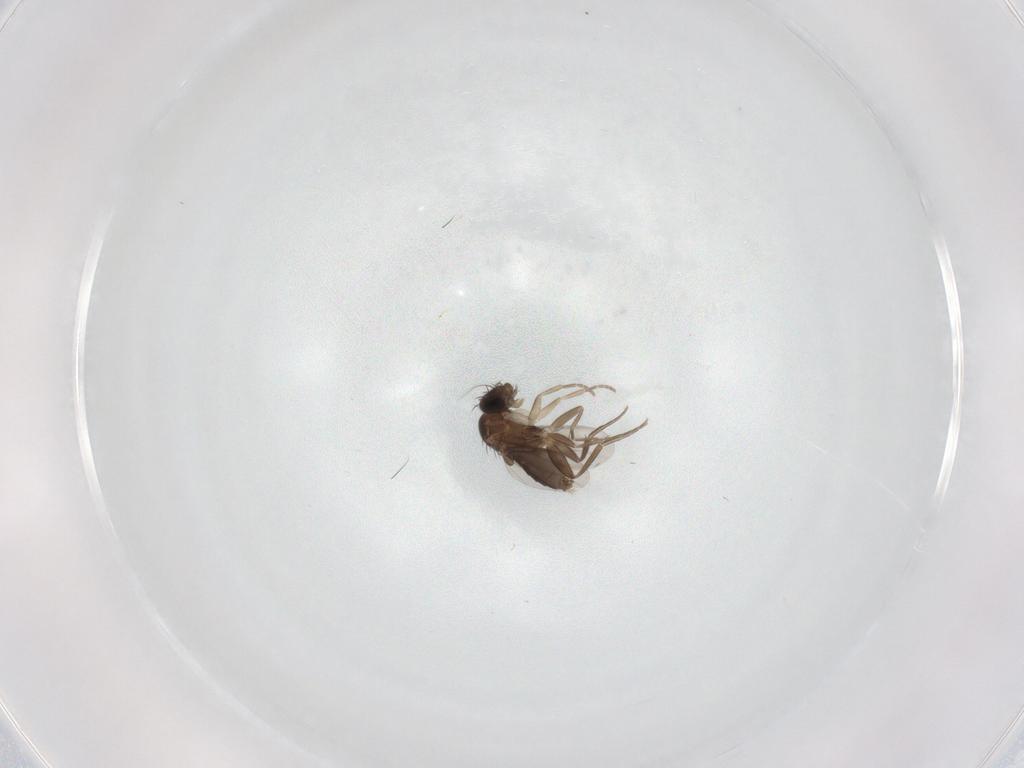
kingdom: Animalia
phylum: Arthropoda
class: Insecta
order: Diptera
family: Phoridae
